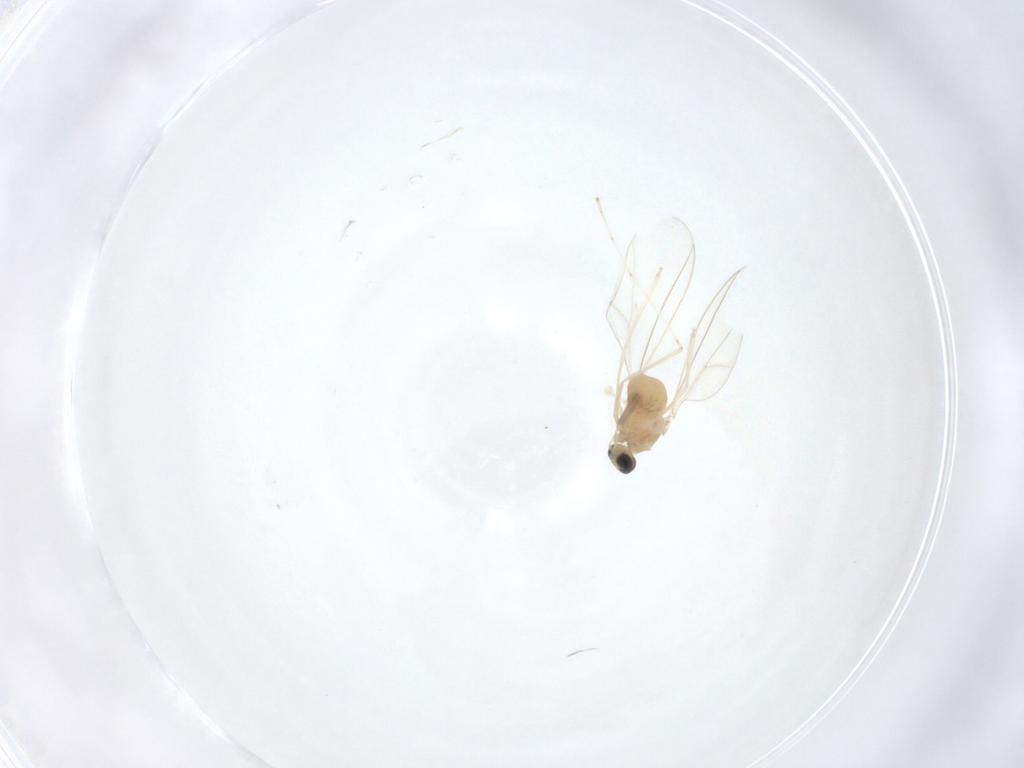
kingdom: Animalia
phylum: Arthropoda
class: Insecta
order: Diptera
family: Cecidomyiidae
